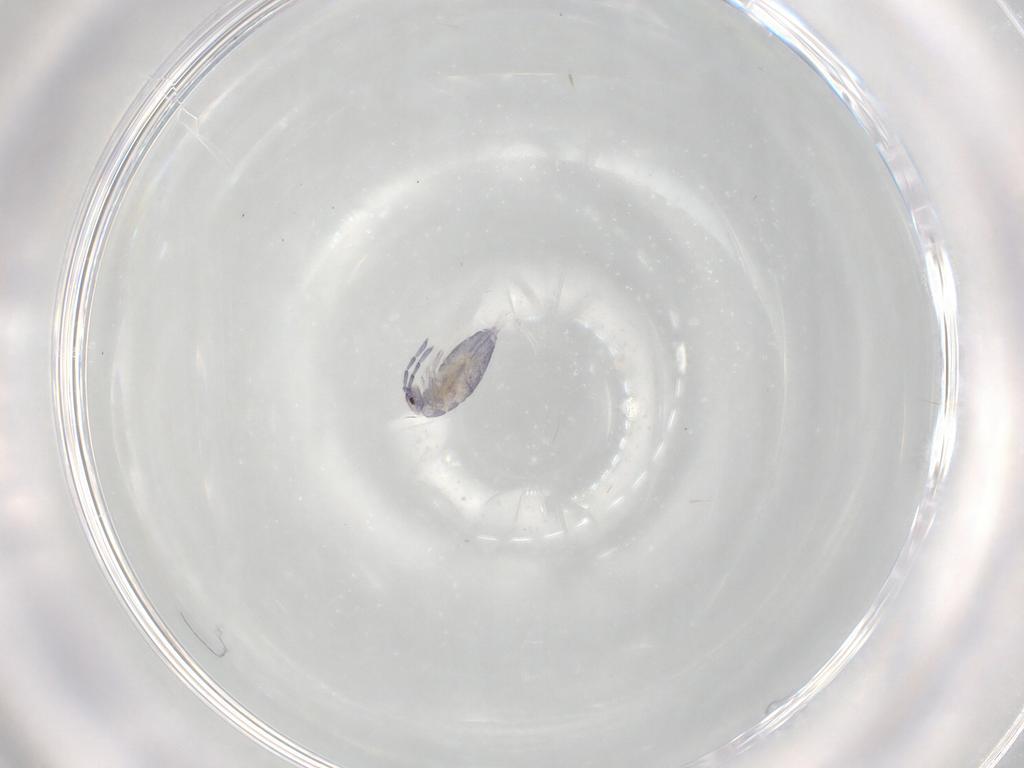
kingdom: Animalia
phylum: Arthropoda
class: Collembola
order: Entomobryomorpha
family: Entomobryidae
